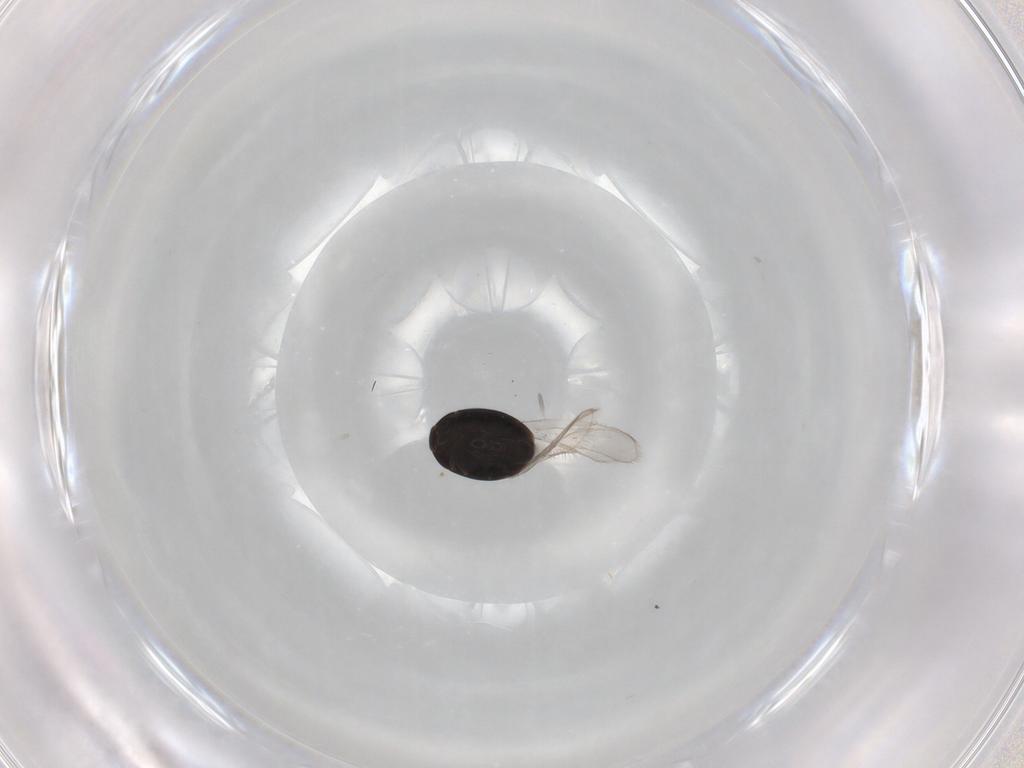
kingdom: Animalia
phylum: Arthropoda
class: Insecta
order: Coleoptera
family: Corylophidae
